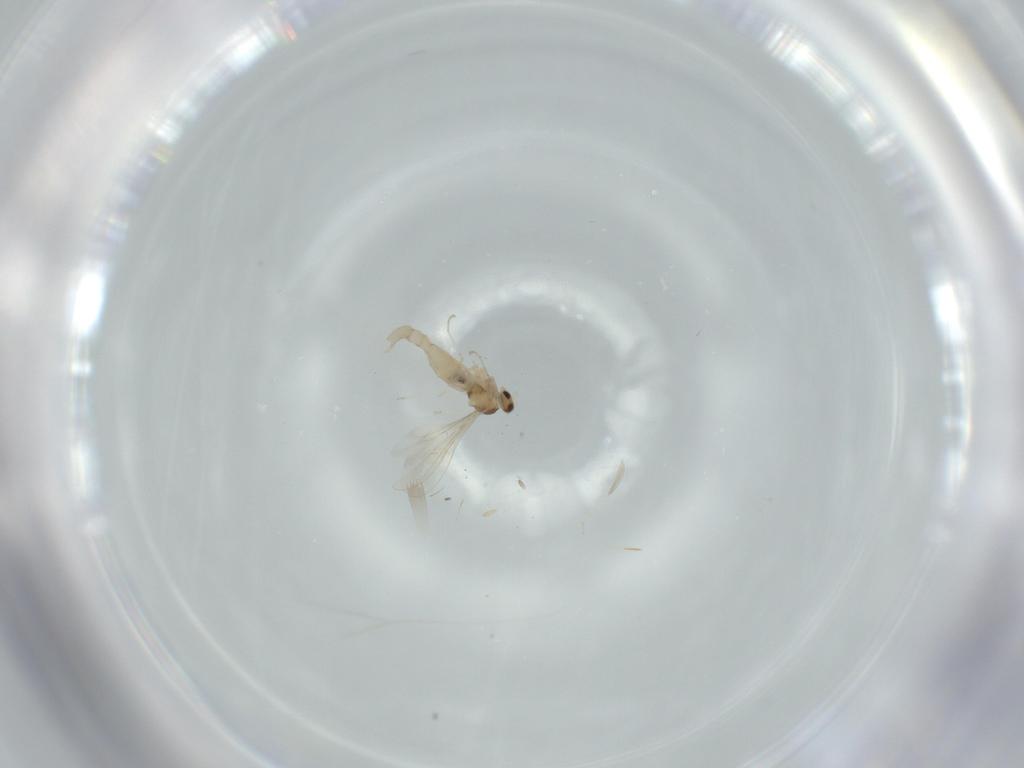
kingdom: Animalia
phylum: Arthropoda
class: Insecta
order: Diptera
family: Cecidomyiidae
